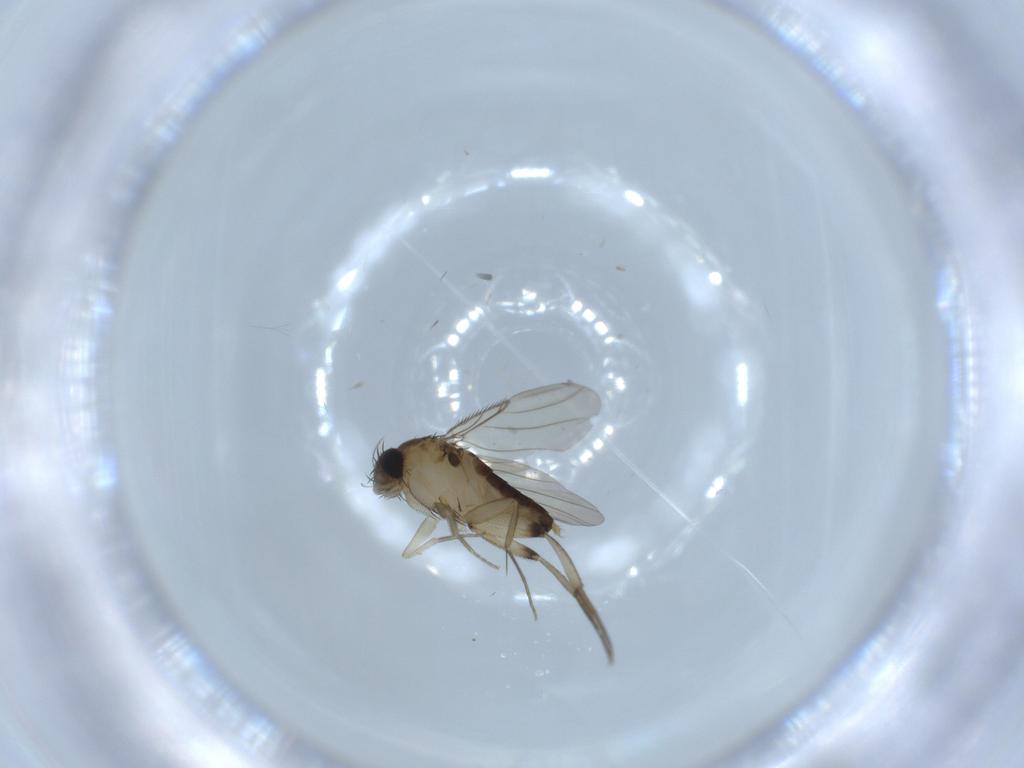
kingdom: Animalia
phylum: Arthropoda
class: Insecta
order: Diptera
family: Phoridae
